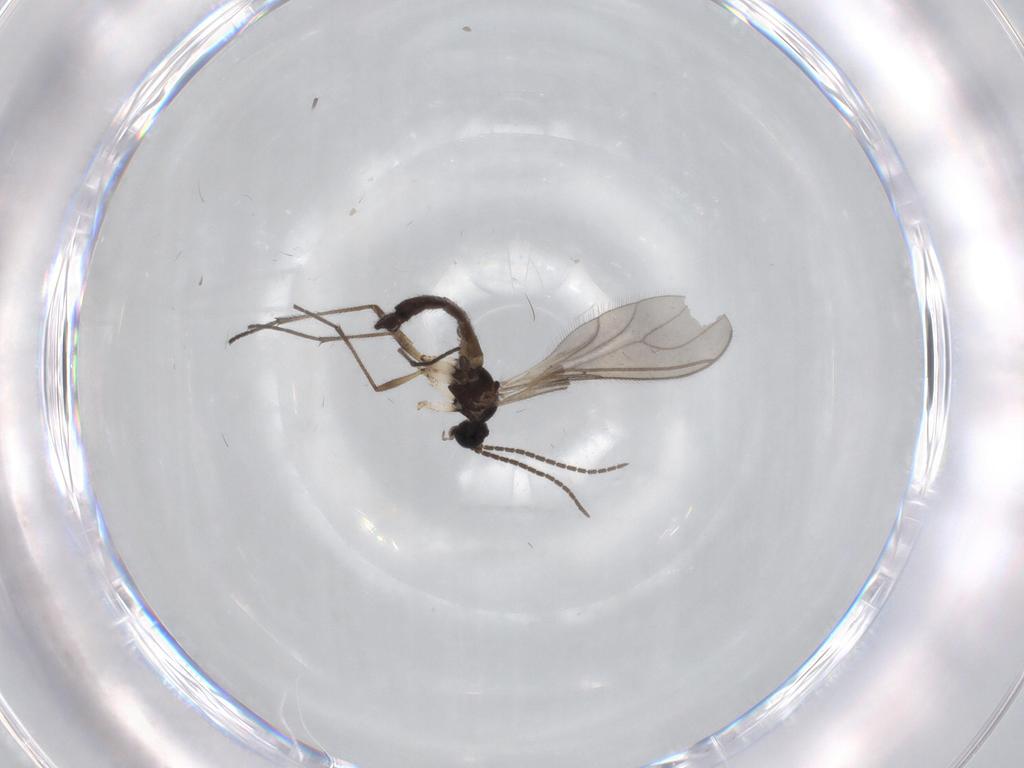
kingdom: Animalia
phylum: Arthropoda
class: Insecta
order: Diptera
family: Sciaridae
